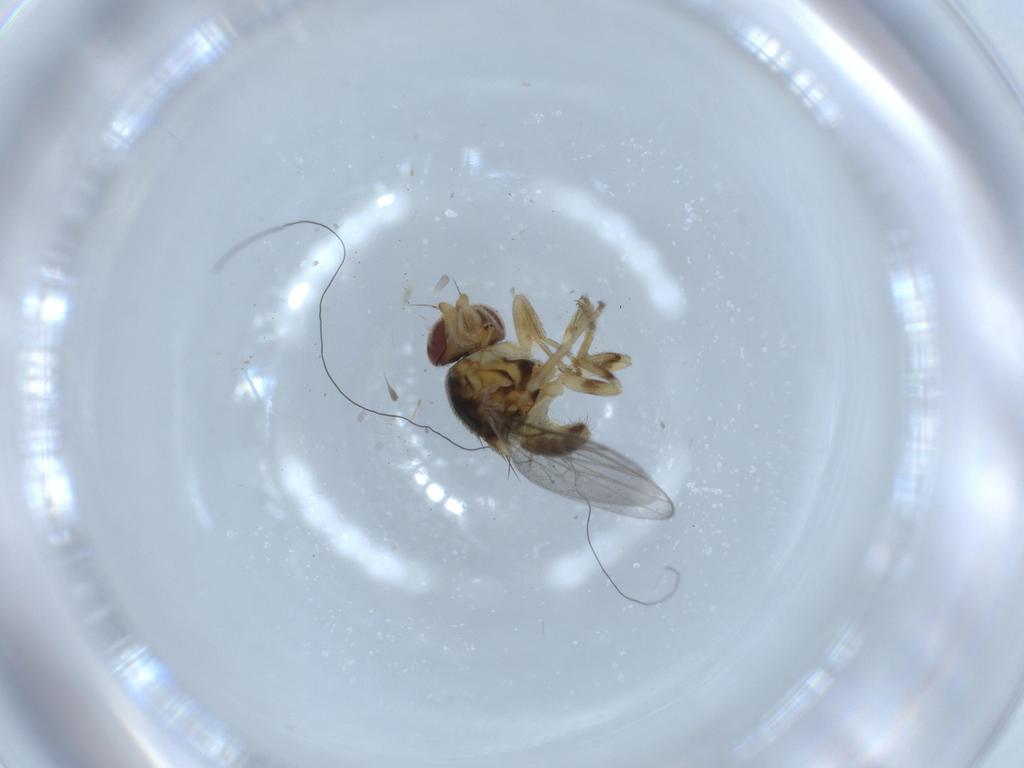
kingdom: Animalia
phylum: Arthropoda
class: Insecta
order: Diptera
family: Chloropidae
